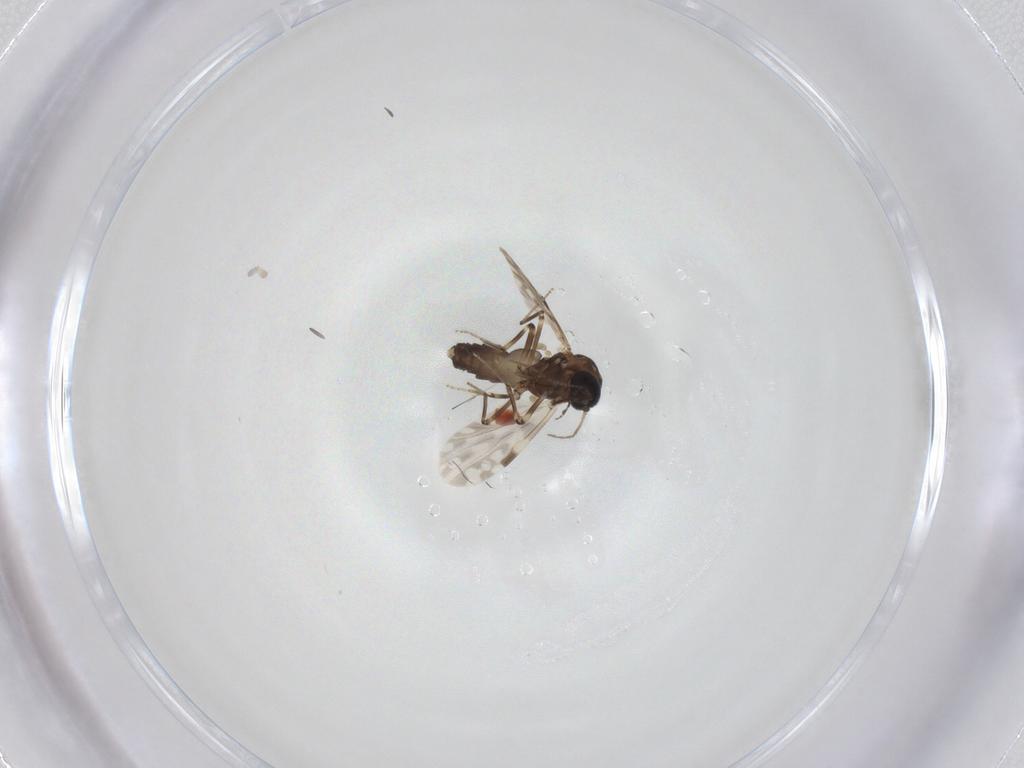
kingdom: Animalia
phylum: Arthropoda
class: Insecta
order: Diptera
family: Ceratopogonidae
